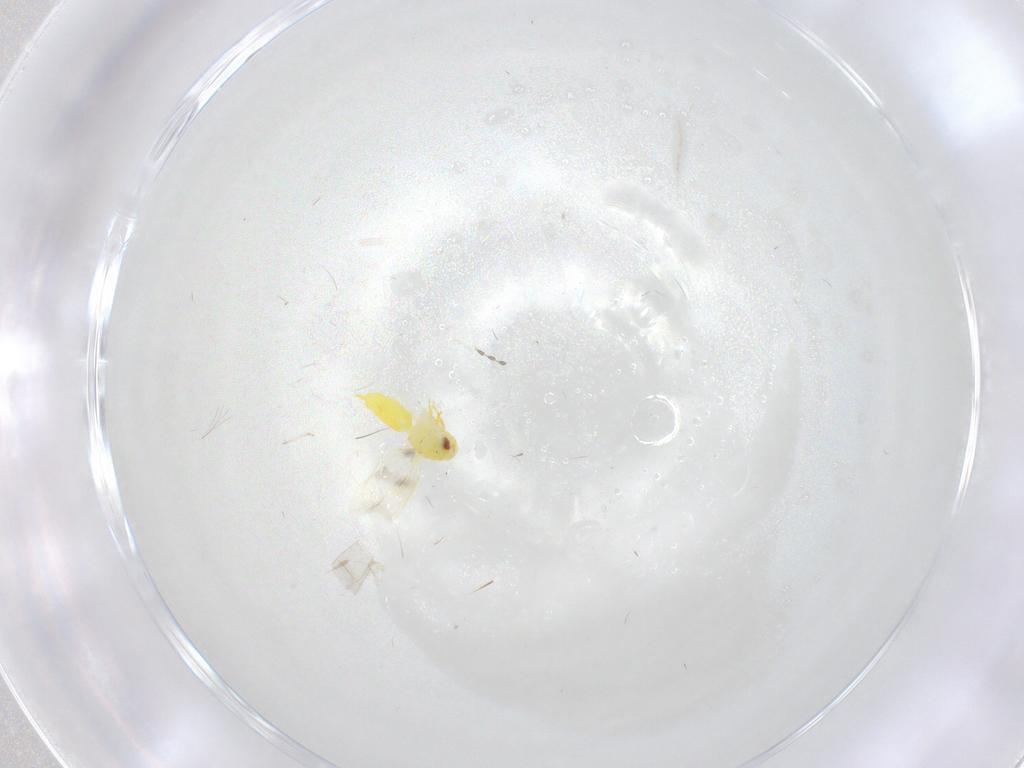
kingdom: Animalia
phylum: Arthropoda
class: Insecta
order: Hemiptera
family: Aleyrodidae
